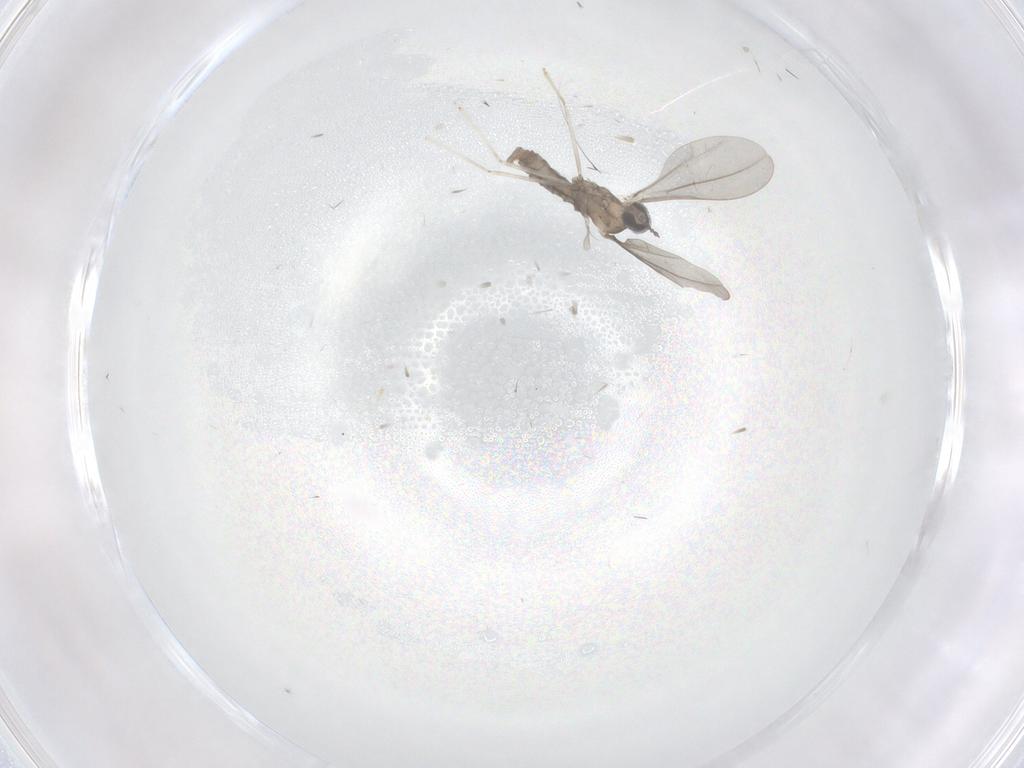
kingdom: Animalia
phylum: Arthropoda
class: Insecta
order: Diptera
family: Cecidomyiidae
